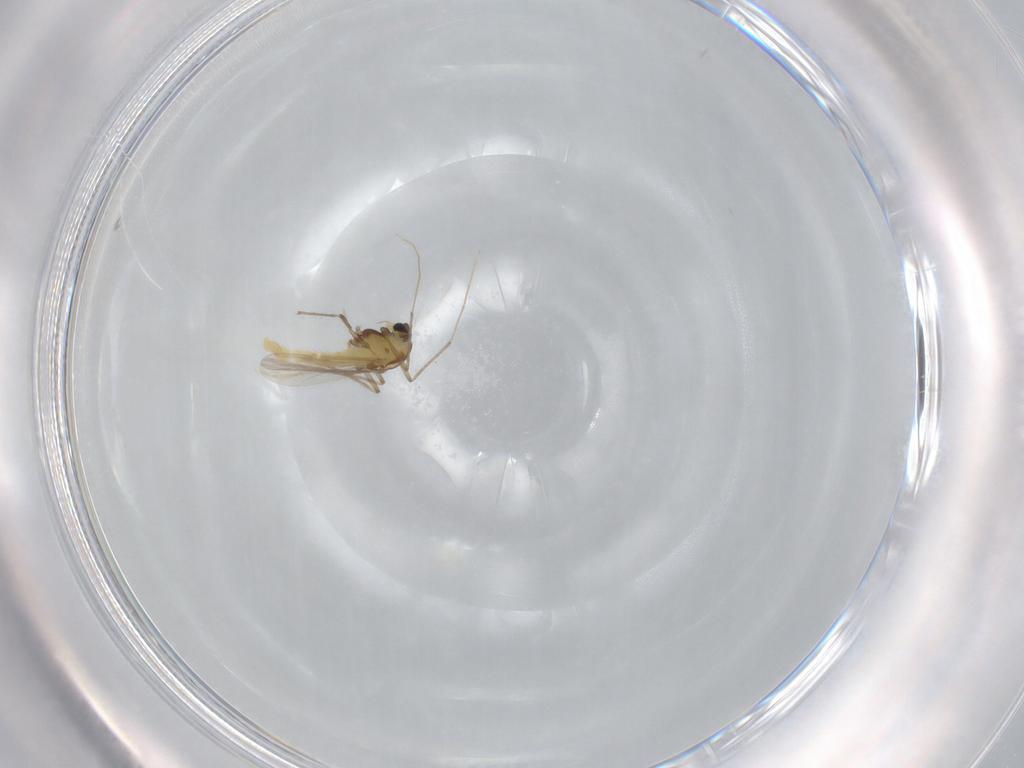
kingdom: Animalia
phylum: Arthropoda
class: Insecta
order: Diptera
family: Chironomidae
